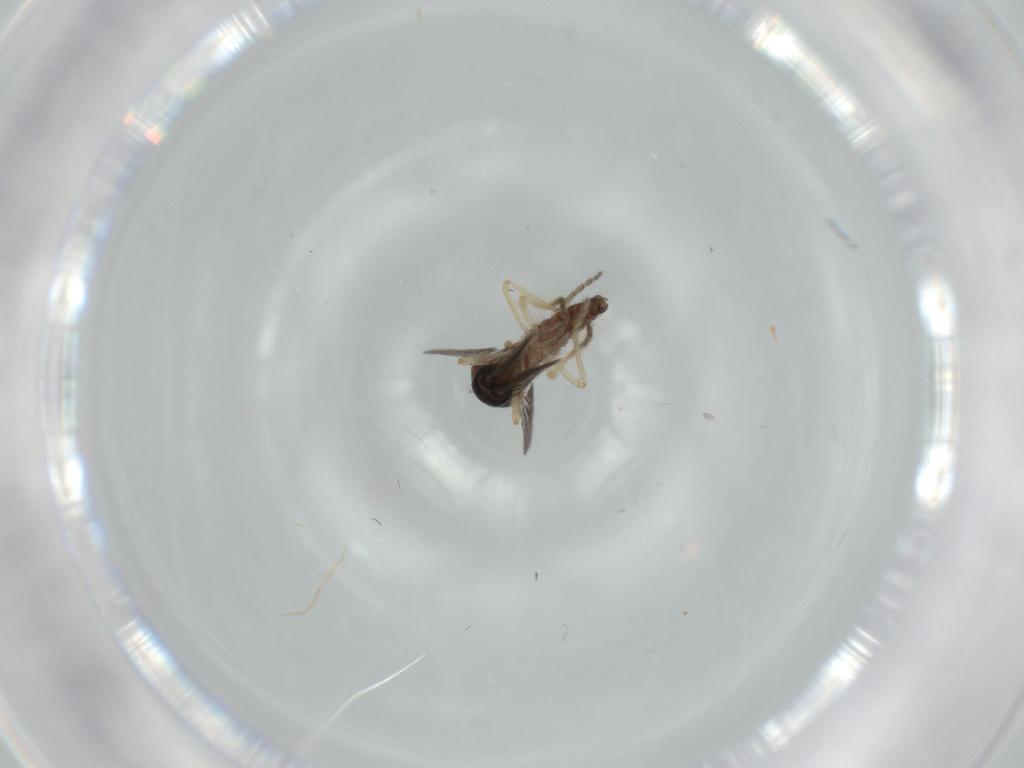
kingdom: Animalia
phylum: Arthropoda
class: Insecta
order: Diptera
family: Ceratopogonidae
